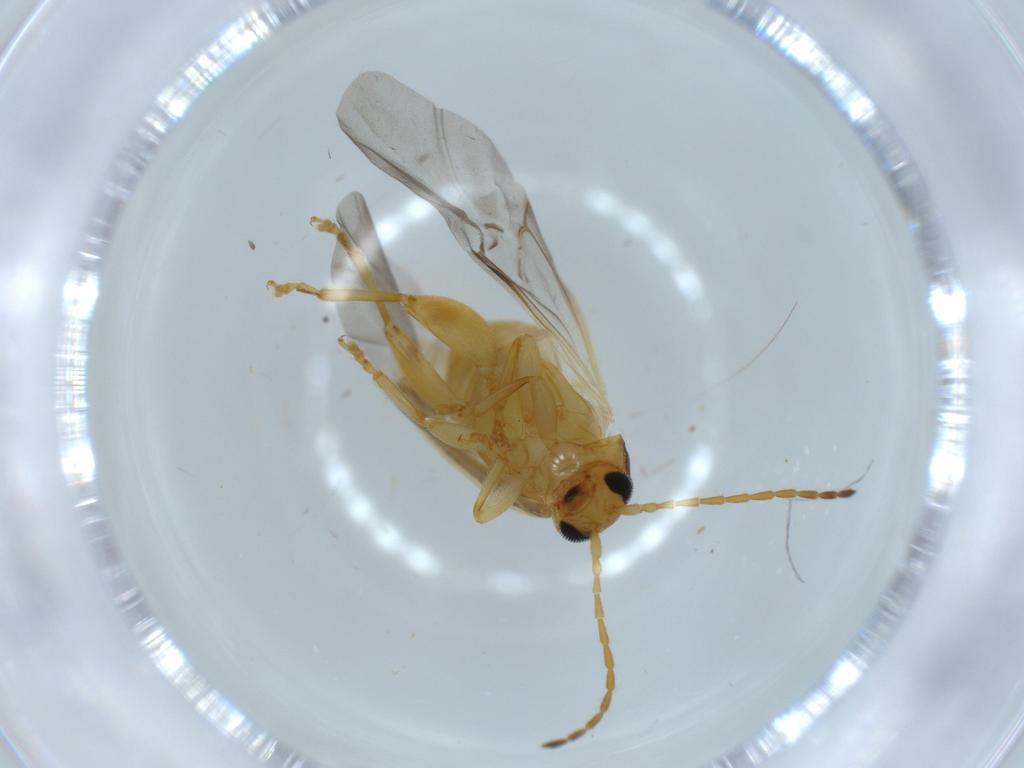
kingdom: Animalia
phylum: Arthropoda
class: Insecta
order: Coleoptera
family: Chrysomelidae
